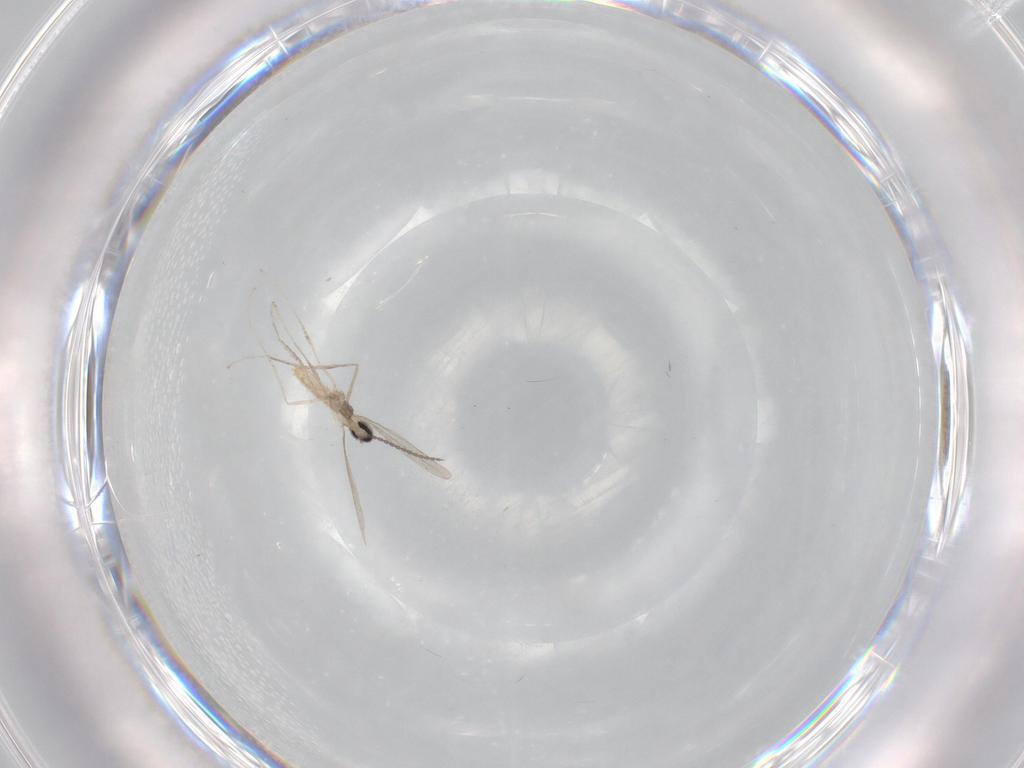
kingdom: Animalia
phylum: Arthropoda
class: Insecta
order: Diptera
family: Cecidomyiidae
